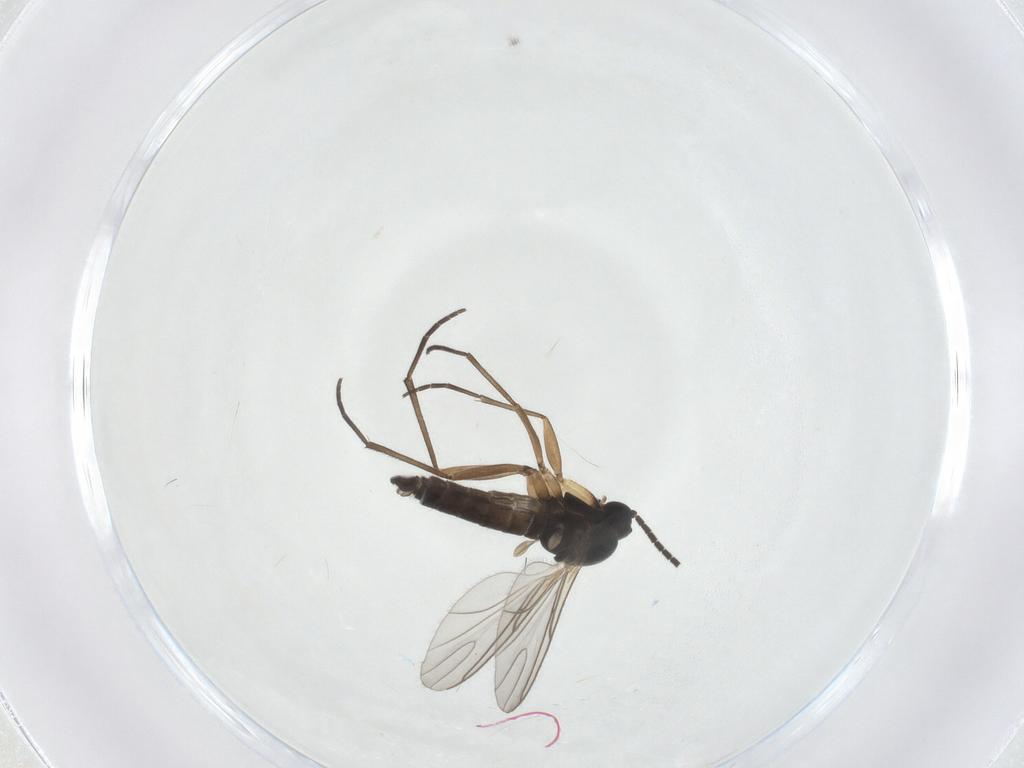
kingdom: Animalia
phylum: Arthropoda
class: Insecta
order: Diptera
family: Sciaridae
